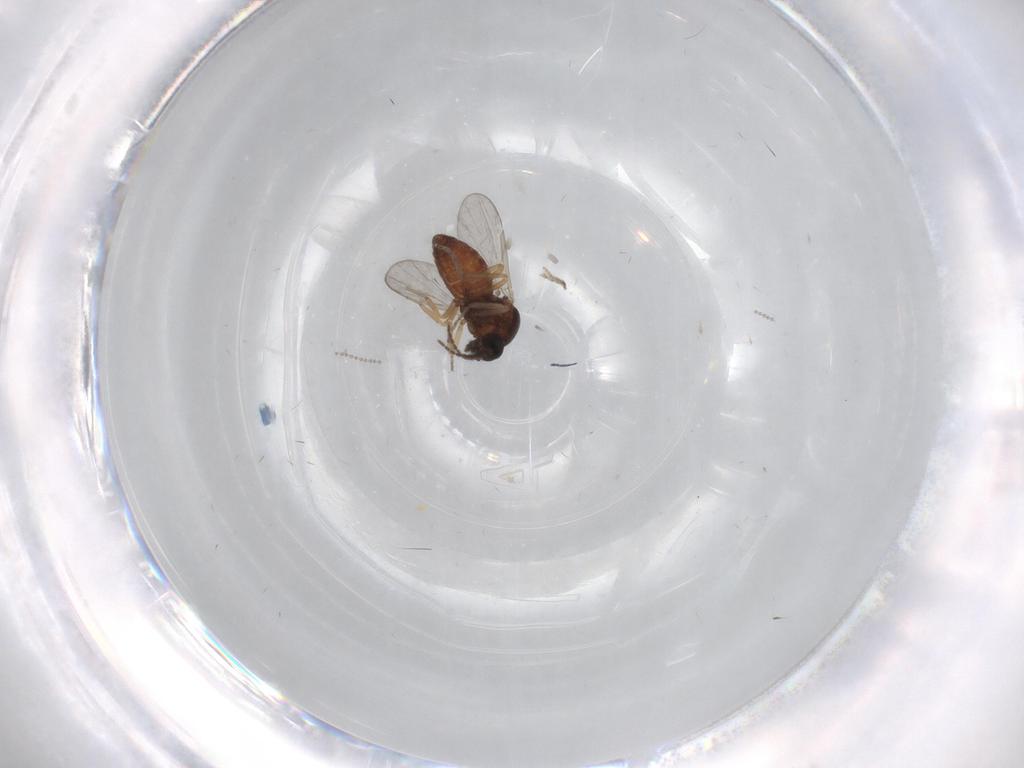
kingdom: Animalia
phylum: Arthropoda
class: Insecta
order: Diptera
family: Ceratopogonidae
